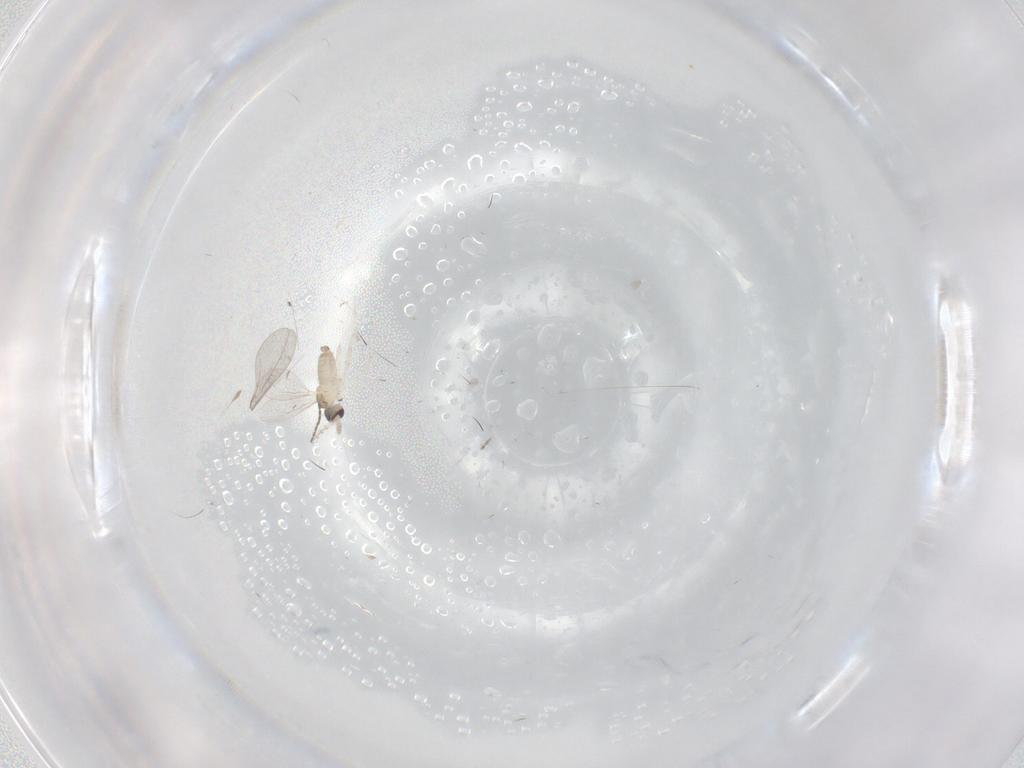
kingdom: Animalia
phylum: Arthropoda
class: Insecta
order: Diptera
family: Cecidomyiidae
